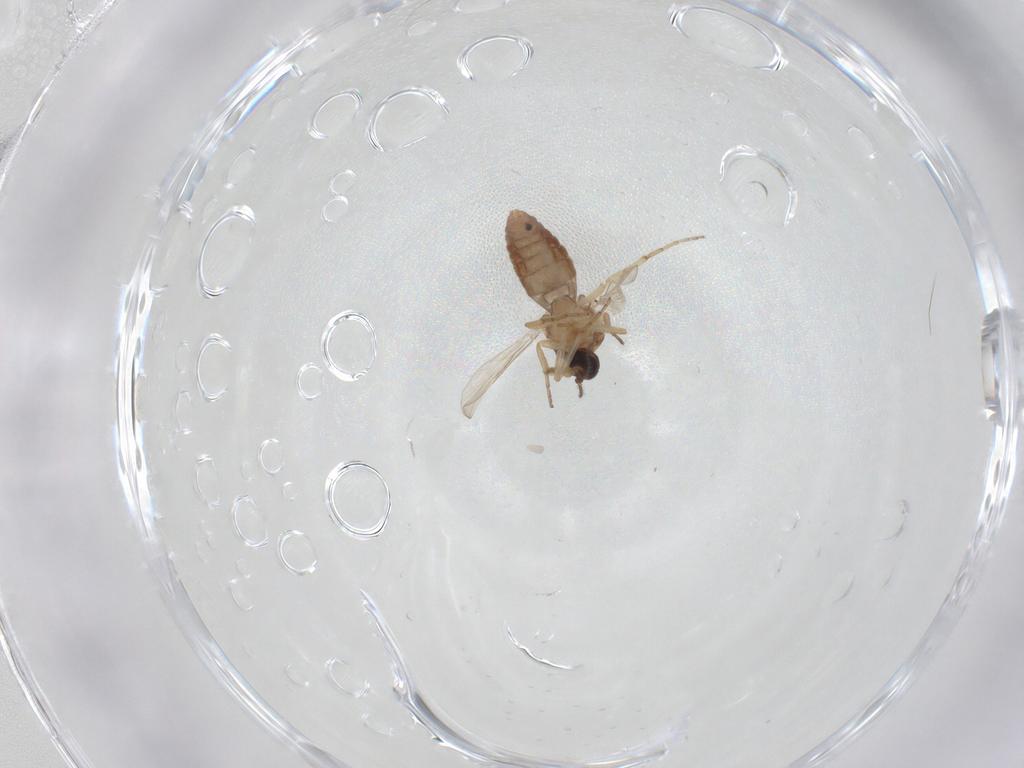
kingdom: Animalia
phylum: Arthropoda
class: Insecta
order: Diptera
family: Ceratopogonidae
